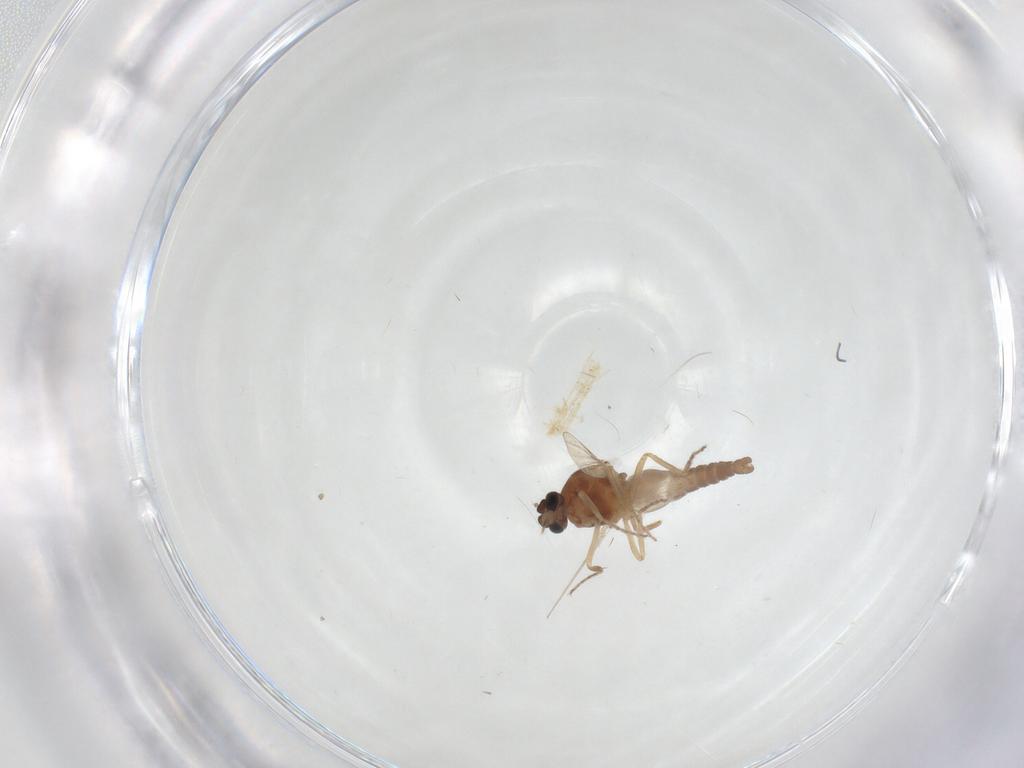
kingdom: Animalia
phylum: Arthropoda
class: Insecta
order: Diptera
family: Ceratopogonidae
